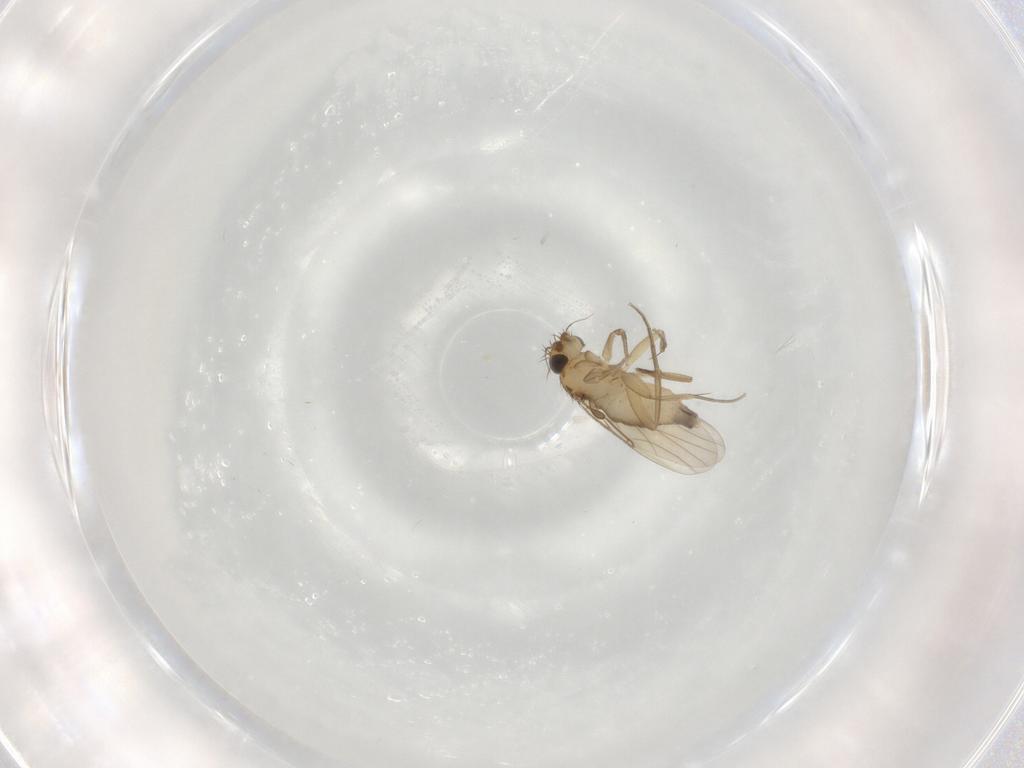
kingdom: Animalia
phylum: Arthropoda
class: Insecta
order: Diptera
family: Phoridae
